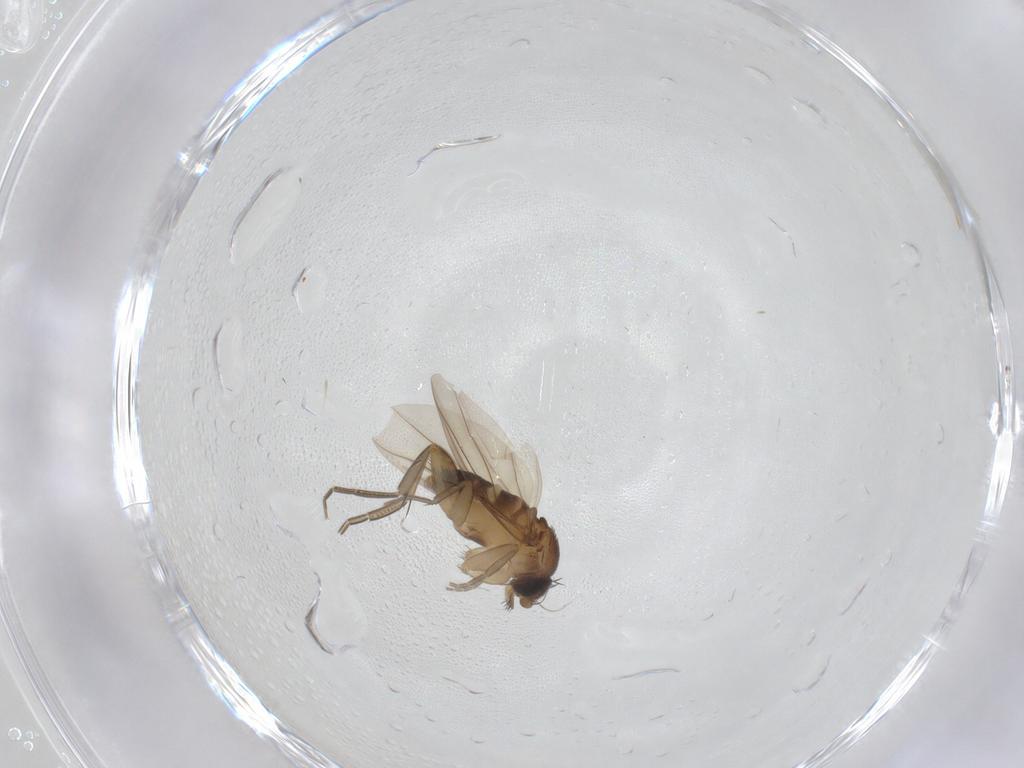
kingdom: Animalia
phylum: Arthropoda
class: Insecta
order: Diptera
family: Phoridae
